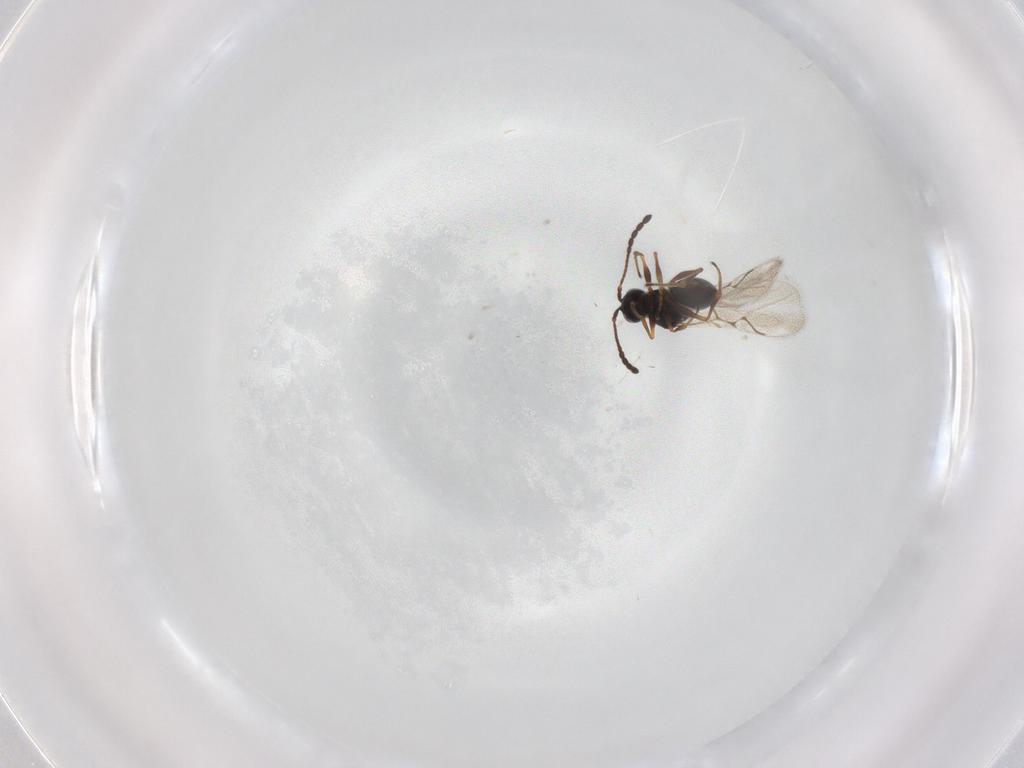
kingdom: Animalia
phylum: Arthropoda
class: Insecta
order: Hymenoptera
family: Figitidae
